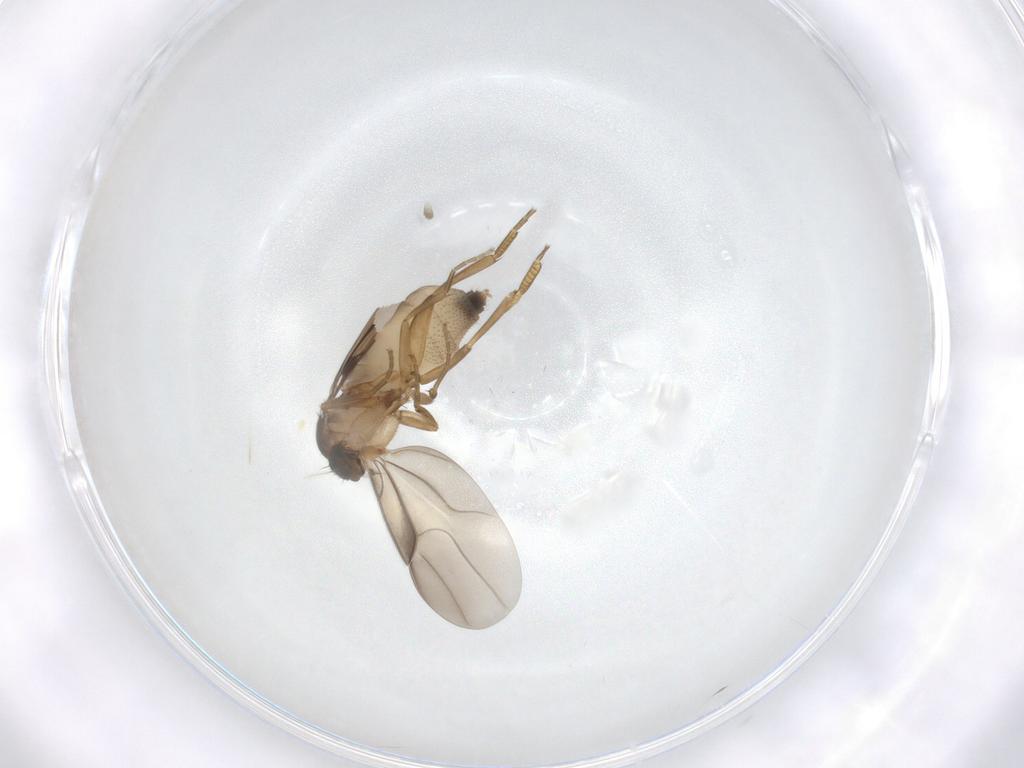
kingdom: Animalia
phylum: Arthropoda
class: Insecta
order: Diptera
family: Phoridae
